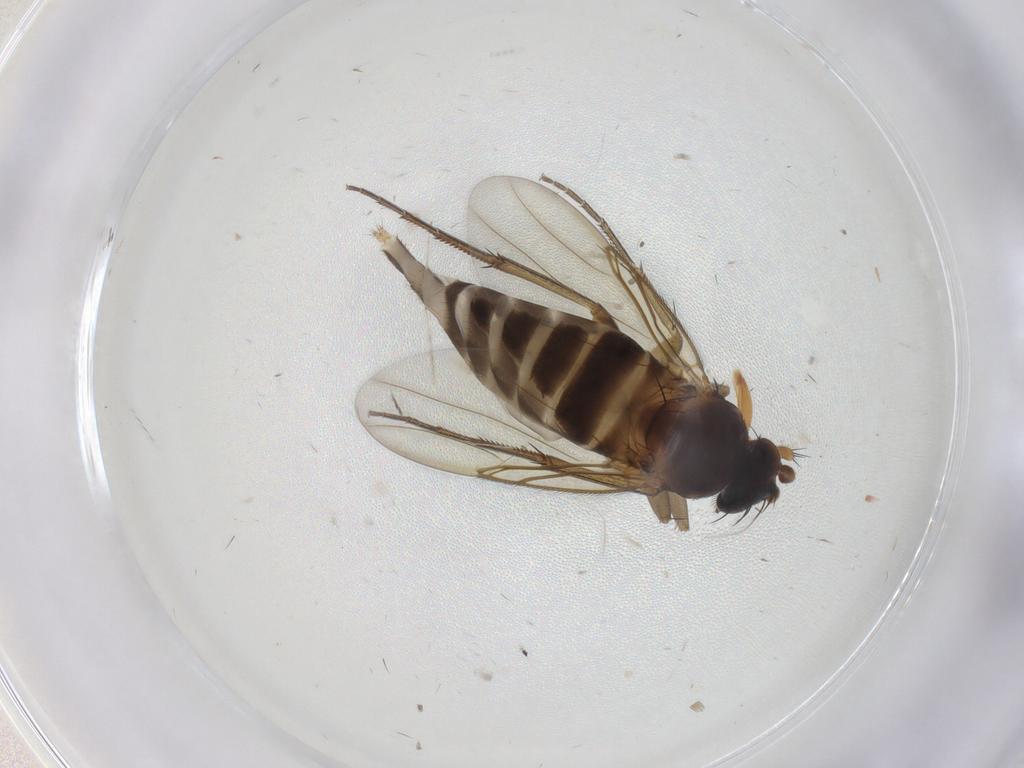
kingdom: Animalia
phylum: Arthropoda
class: Insecta
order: Diptera
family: Phoridae
